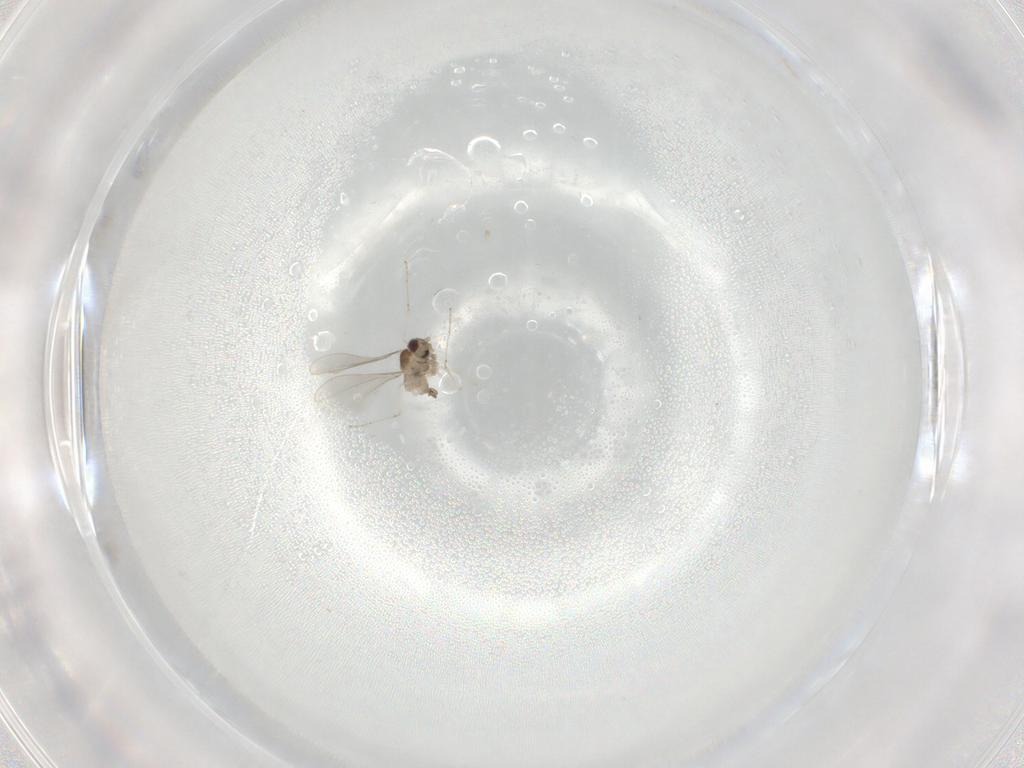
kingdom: Animalia
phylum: Arthropoda
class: Insecta
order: Diptera
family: Cecidomyiidae
